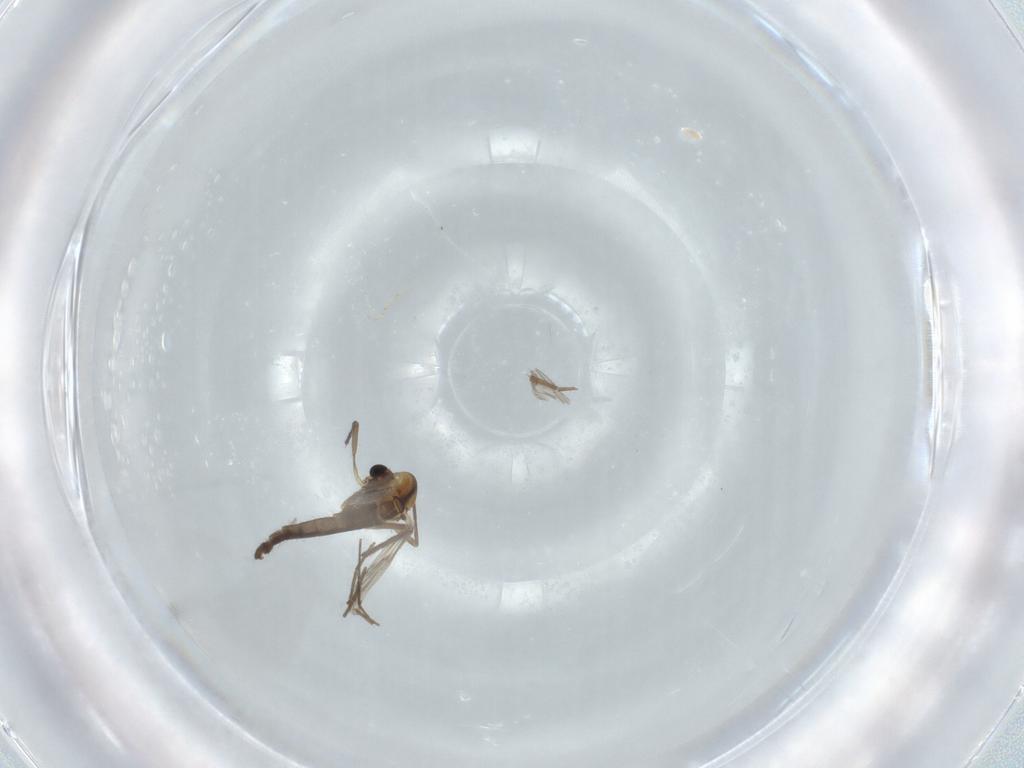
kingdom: Animalia
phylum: Arthropoda
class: Insecta
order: Diptera
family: Chironomidae
